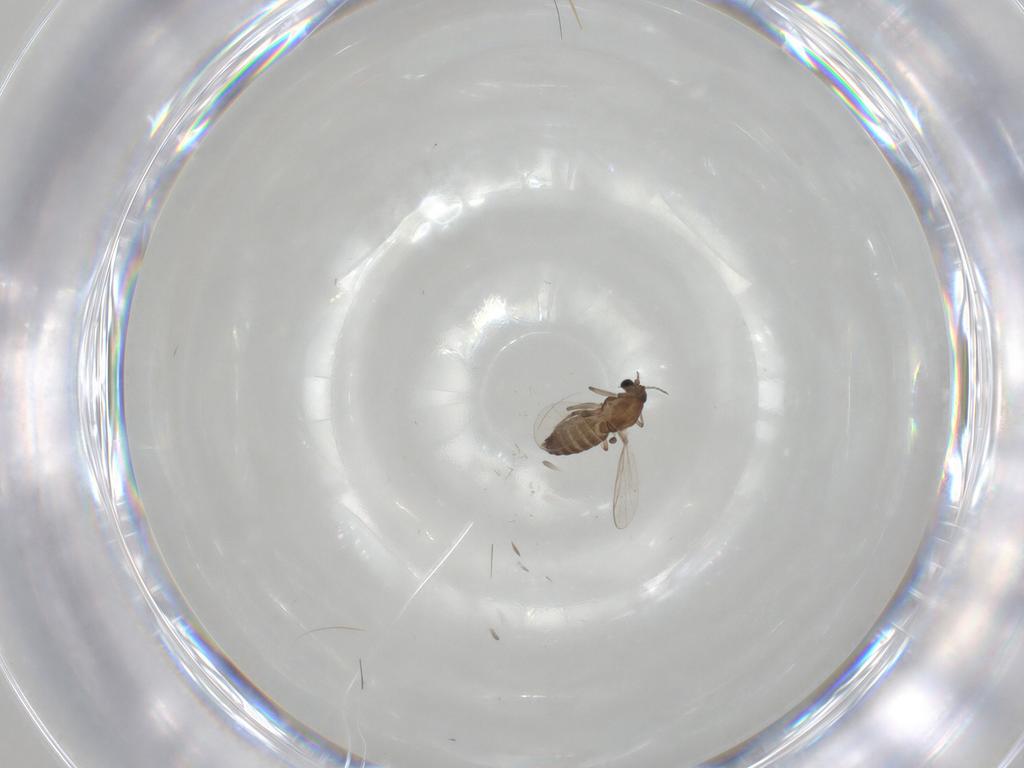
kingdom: Animalia
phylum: Arthropoda
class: Insecta
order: Diptera
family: Chironomidae
